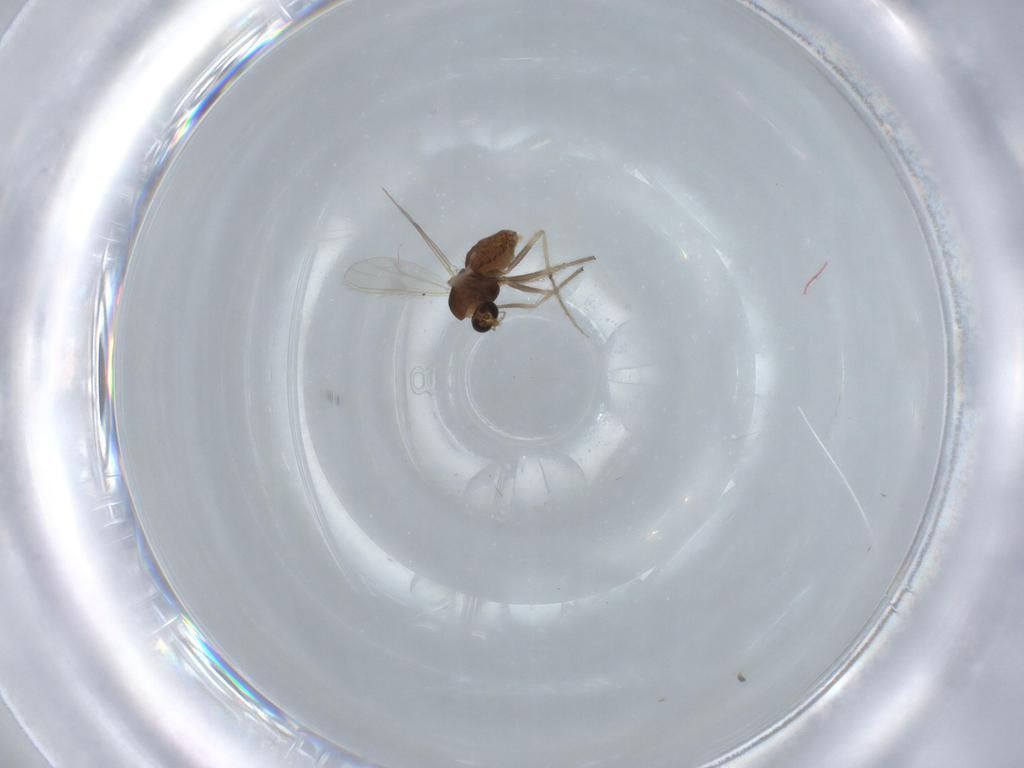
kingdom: Animalia
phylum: Arthropoda
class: Insecta
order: Diptera
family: Chironomidae
